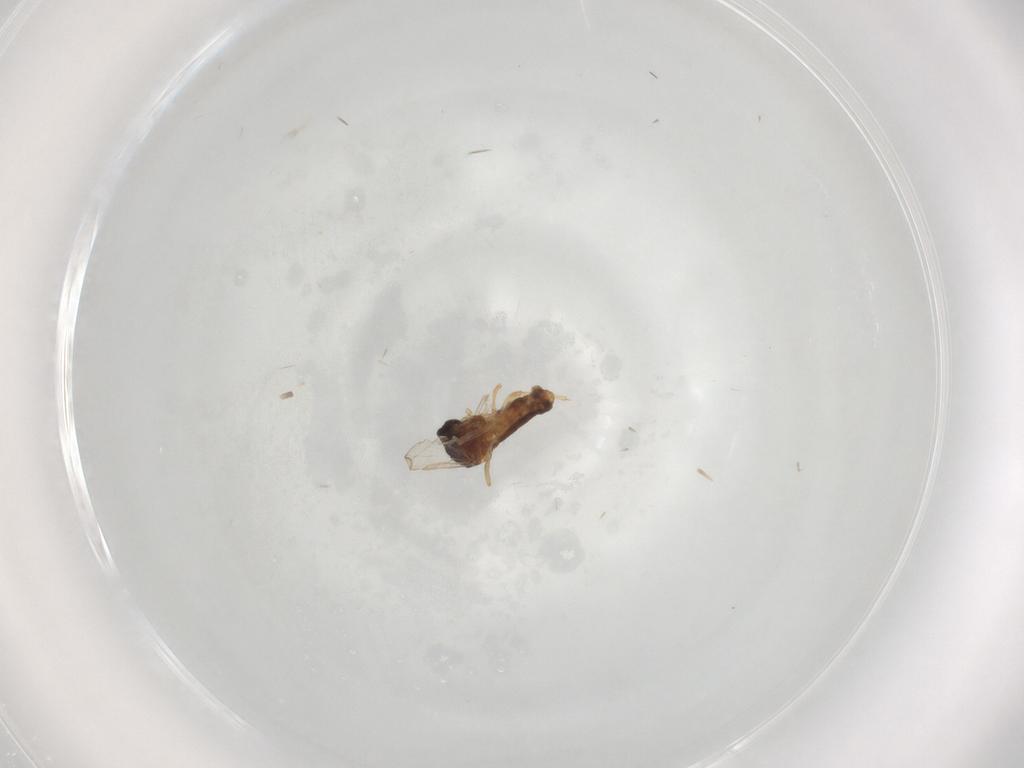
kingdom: Animalia
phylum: Arthropoda
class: Insecta
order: Diptera
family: Ceratopogonidae
